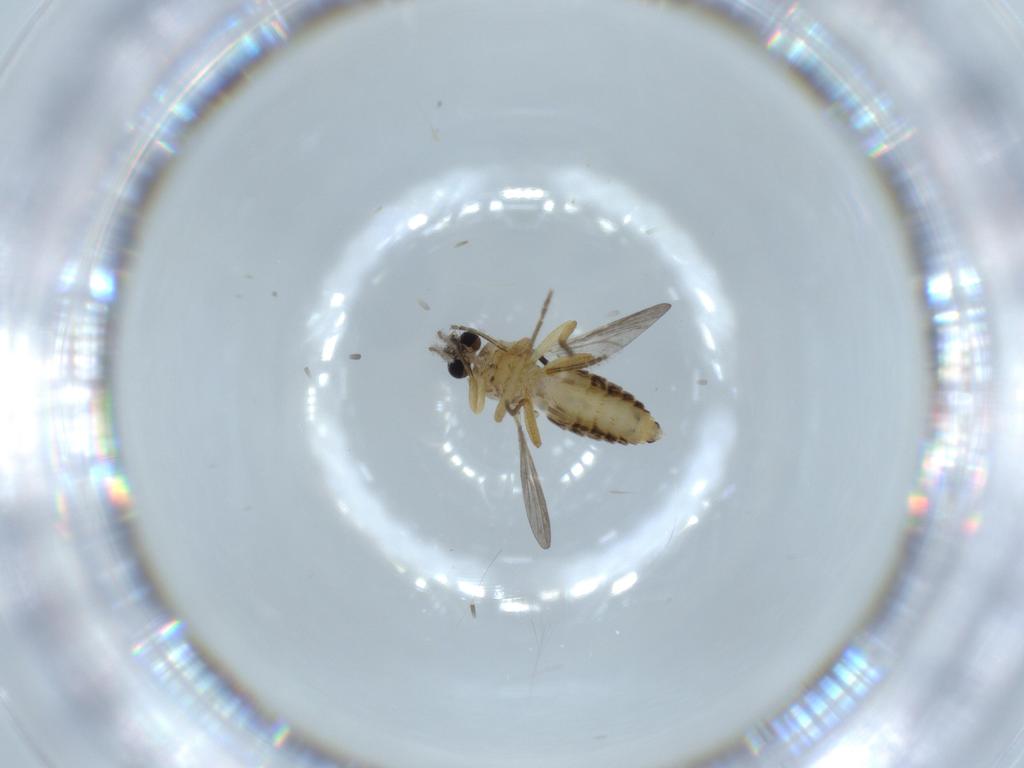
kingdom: Animalia
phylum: Arthropoda
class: Insecta
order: Diptera
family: Ceratopogonidae
